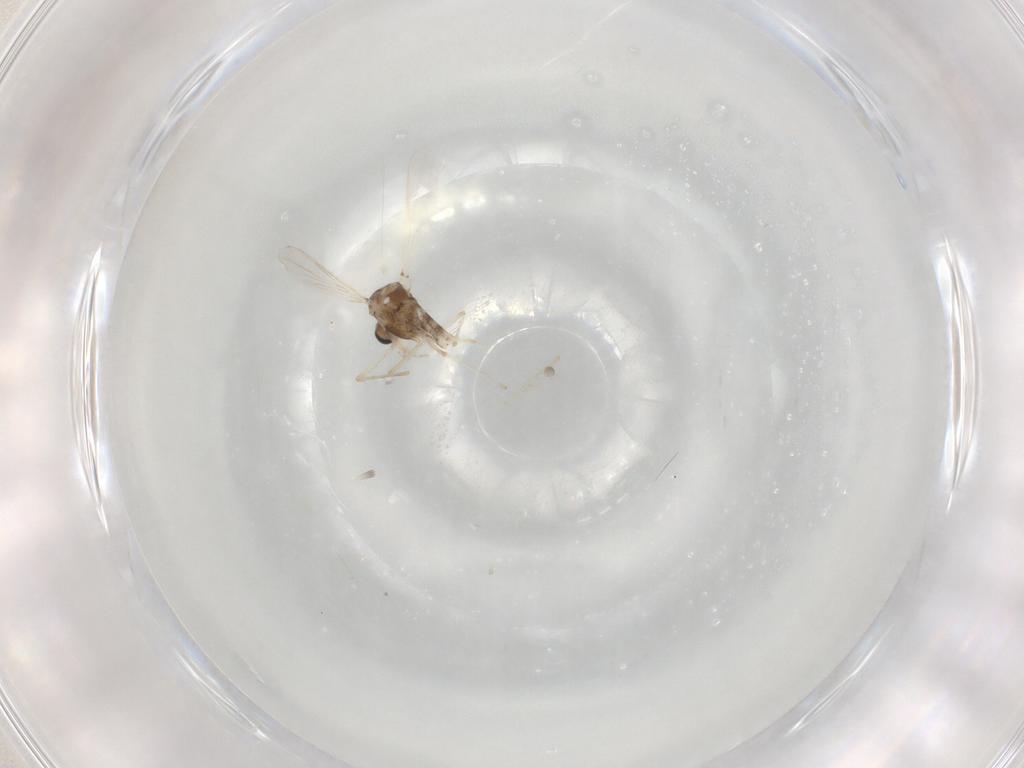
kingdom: Animalia
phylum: Arthropoda
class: Insecta
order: Diptera
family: Chironomidae
